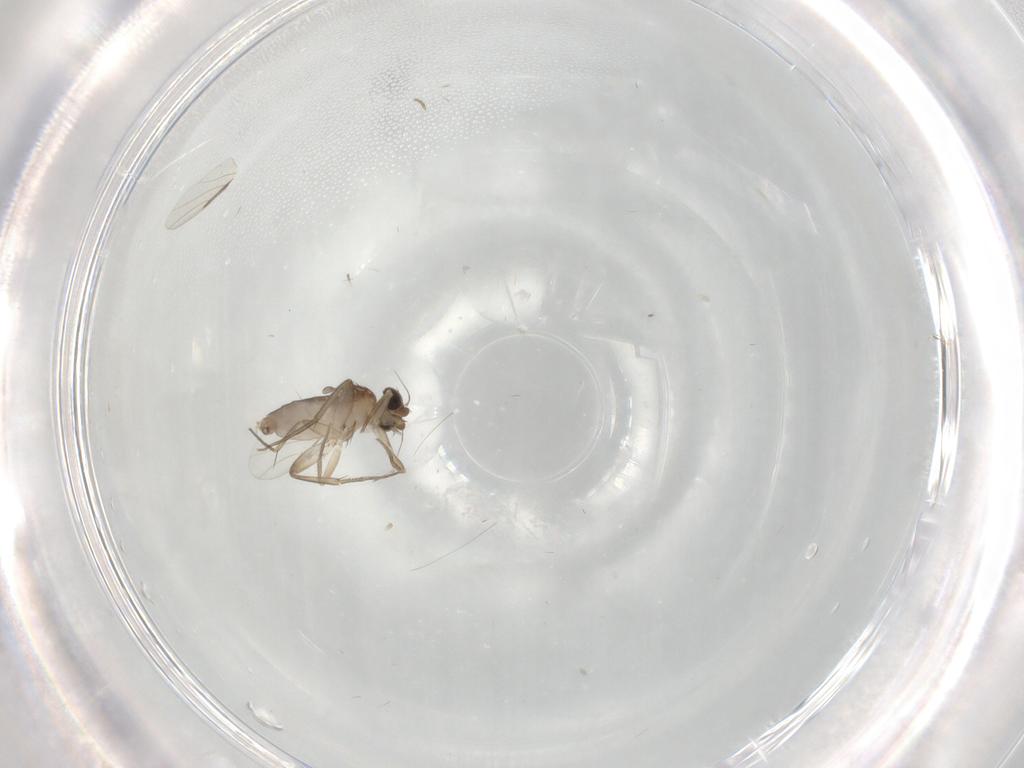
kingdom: Animalia
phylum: Arthropoda
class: Insecta
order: Diptera
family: Phoridae
